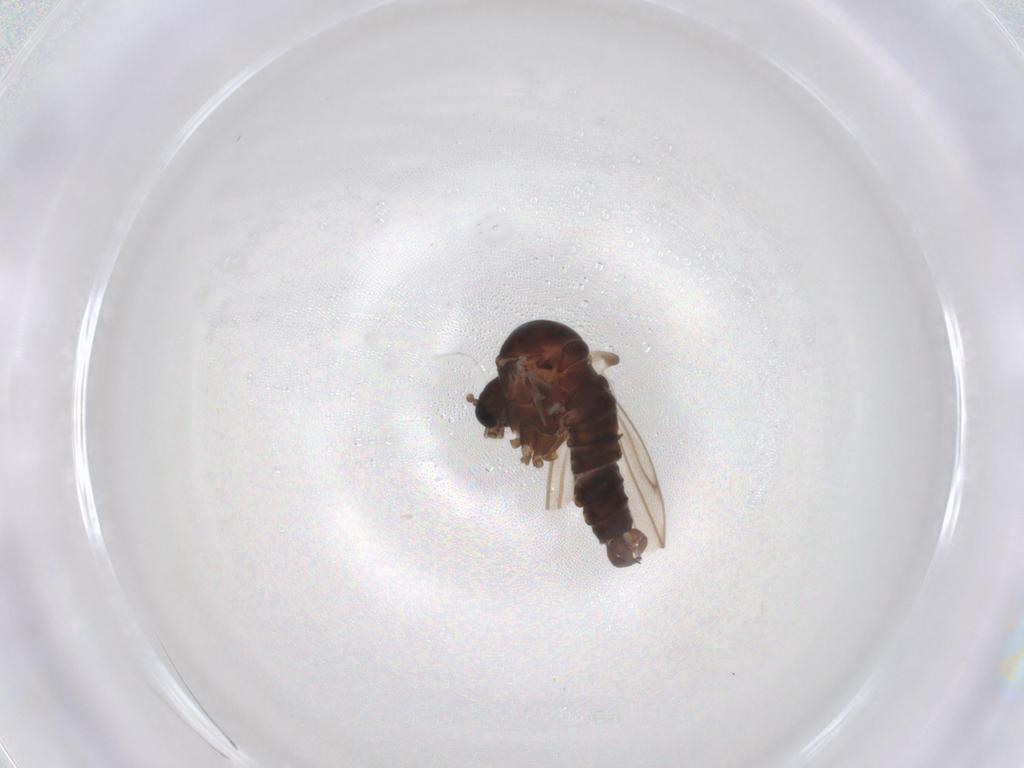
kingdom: Animalia
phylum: Arthropoda
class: Insecta
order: Diptera
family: Psychodidae
